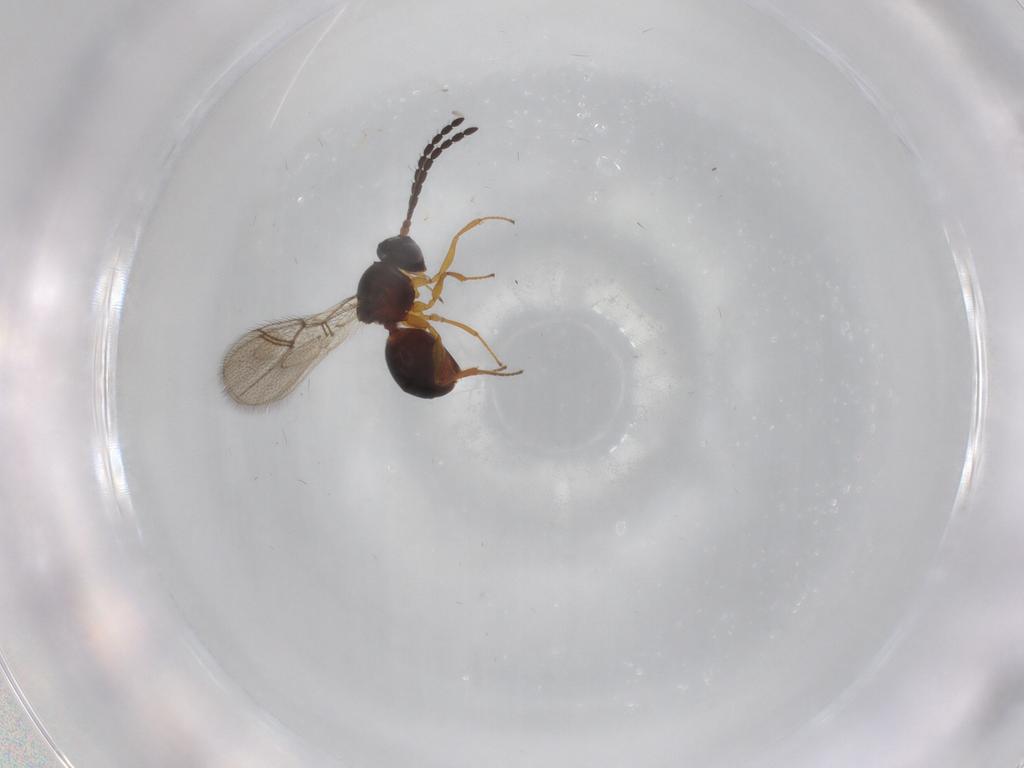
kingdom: Animalia
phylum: Arthropoda
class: Insecta
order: Hymenoptera
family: Figitidae
